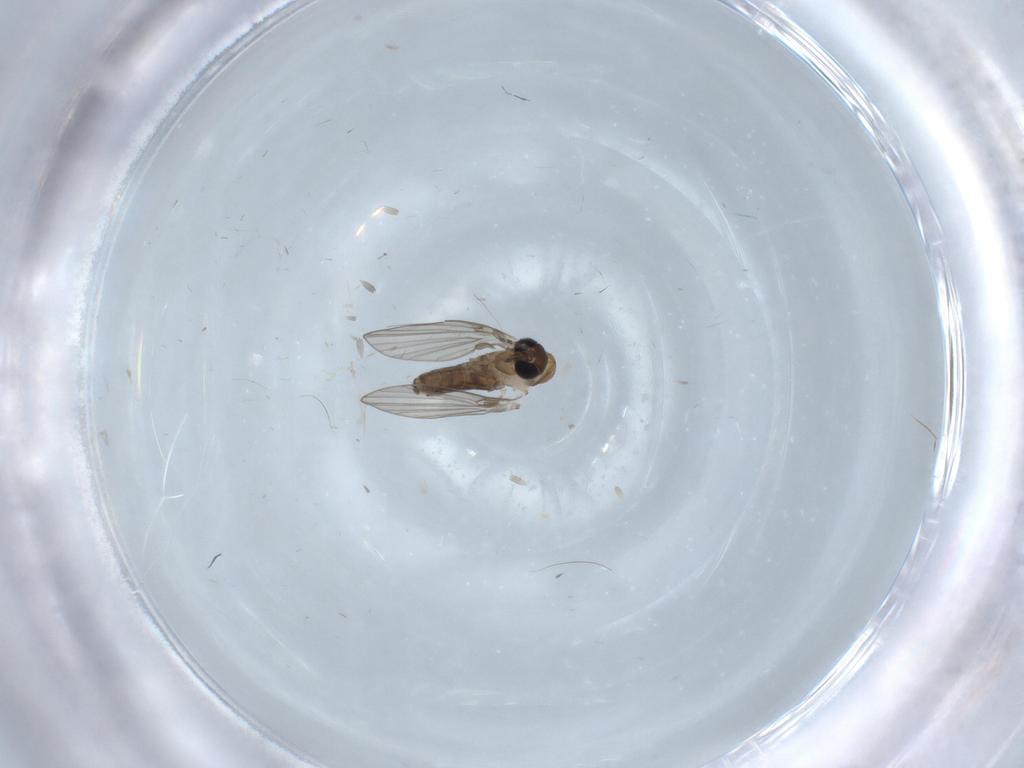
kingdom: Animalia
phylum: Arthropoda
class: Insecta
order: Diptera
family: Psychodidae
